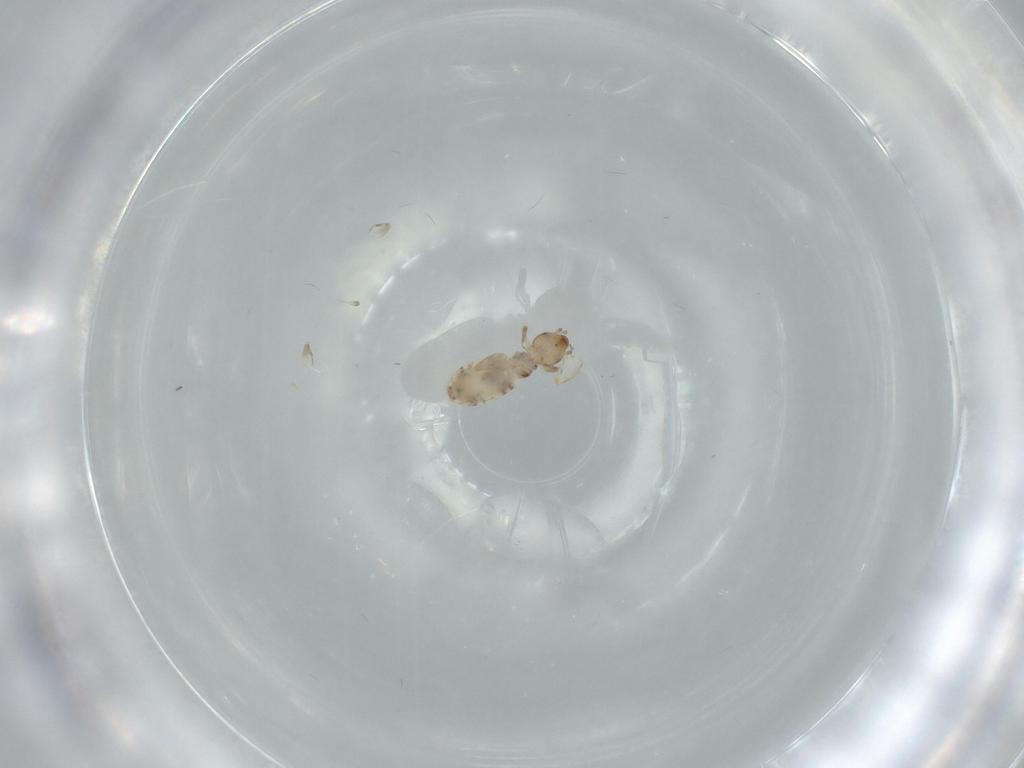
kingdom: Animalia
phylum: Arthropoda
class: Insecta
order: Psocodea
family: Liposcelididae
